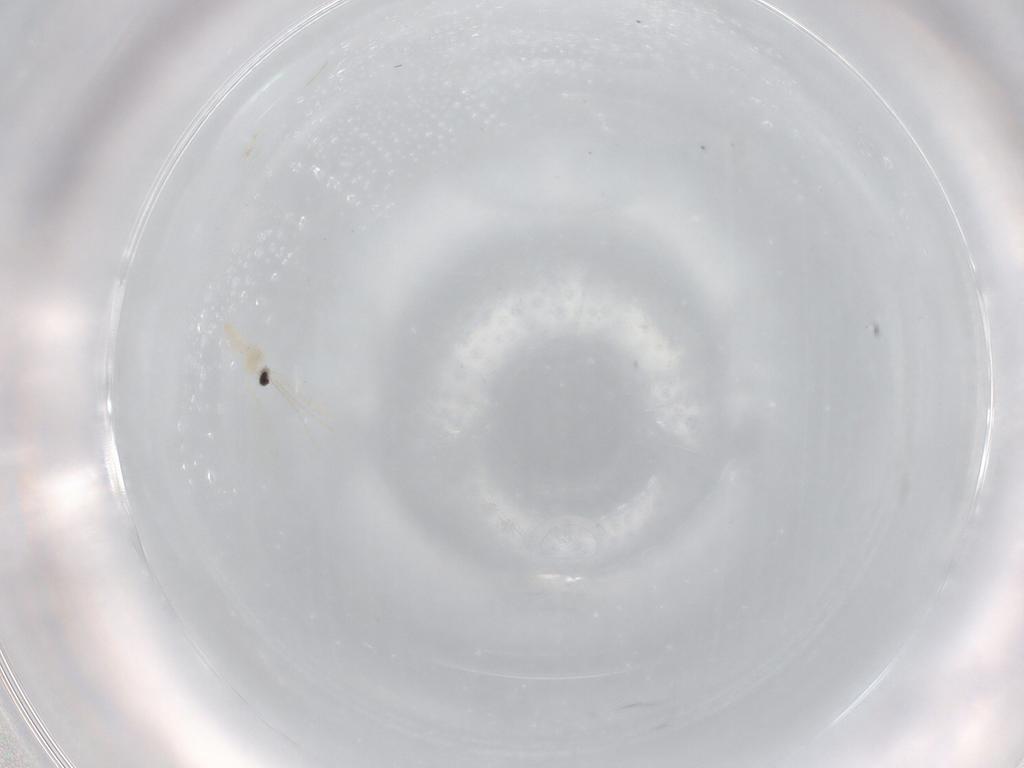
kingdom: Animalia
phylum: Arthropoda
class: Insecta
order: Diptera
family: Cecidomyiidae
